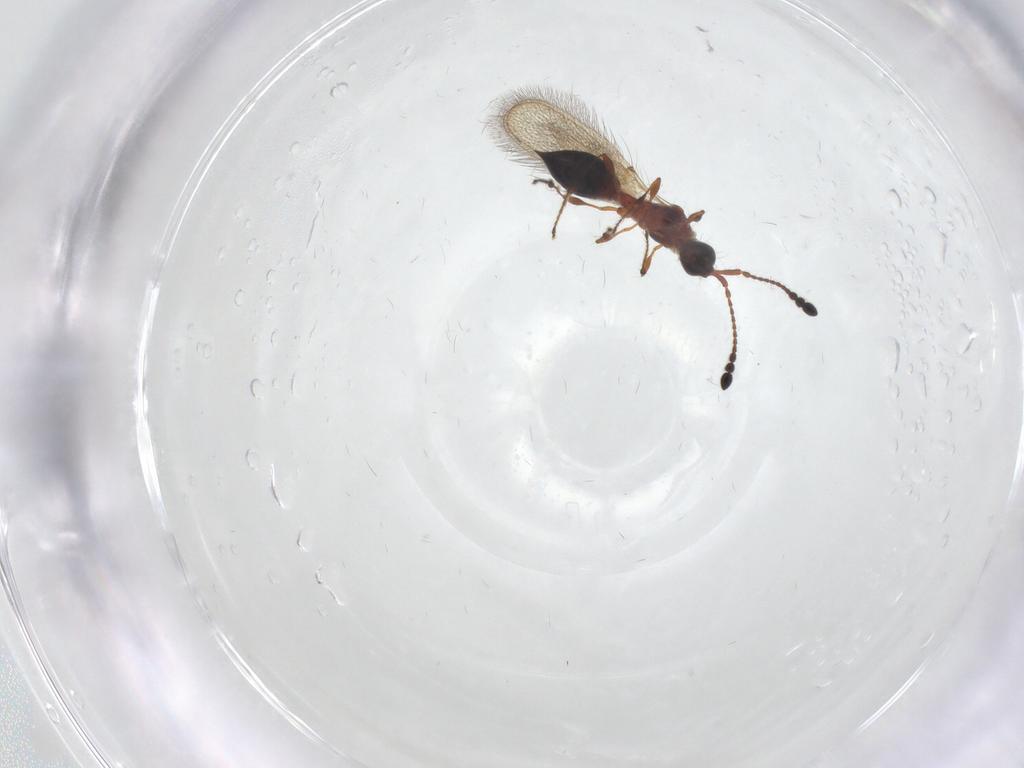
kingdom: Animalia
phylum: Arthropoda
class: Insecta
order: Hymenoptera
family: Diapriidae
